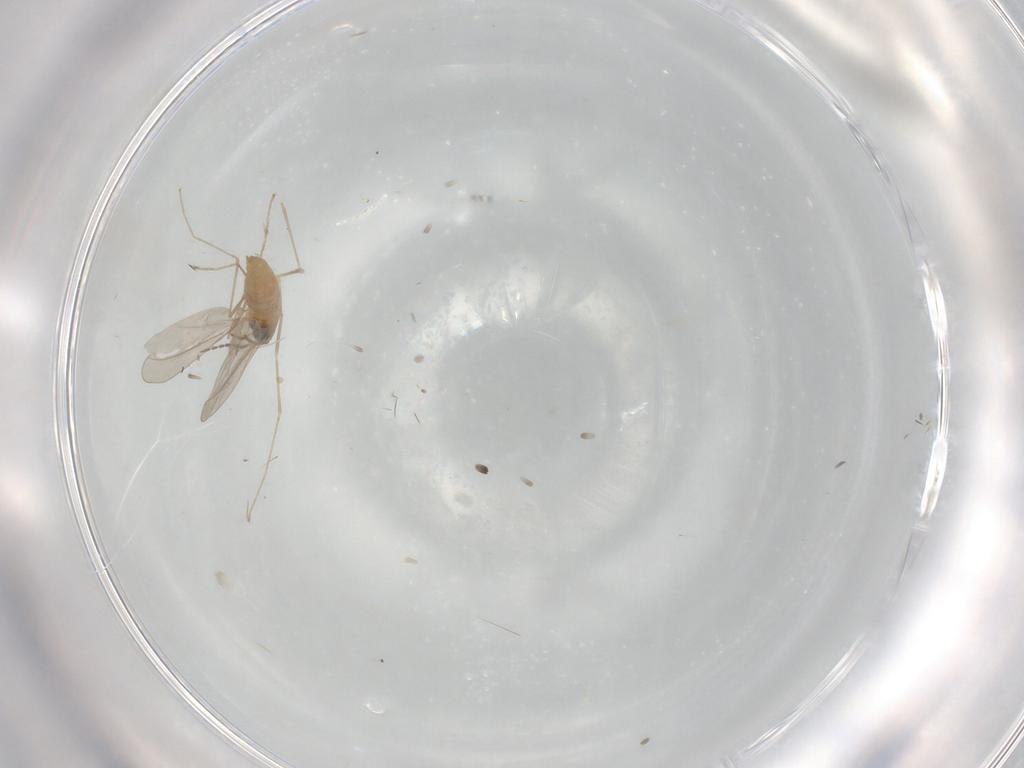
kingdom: Animalia
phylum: Arthropoda
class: Insecta
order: Diptera
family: Cecidomyiidae
